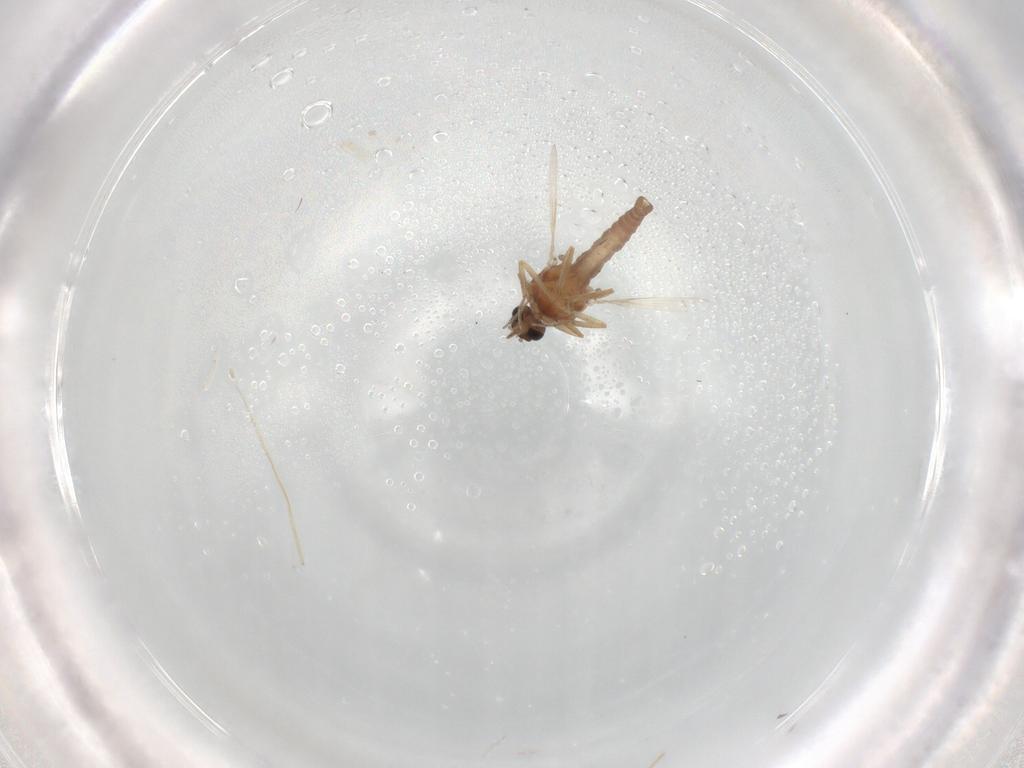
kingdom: Animalia
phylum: Arthropoda
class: Insecta
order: Diptera
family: Ceratopogonidae
